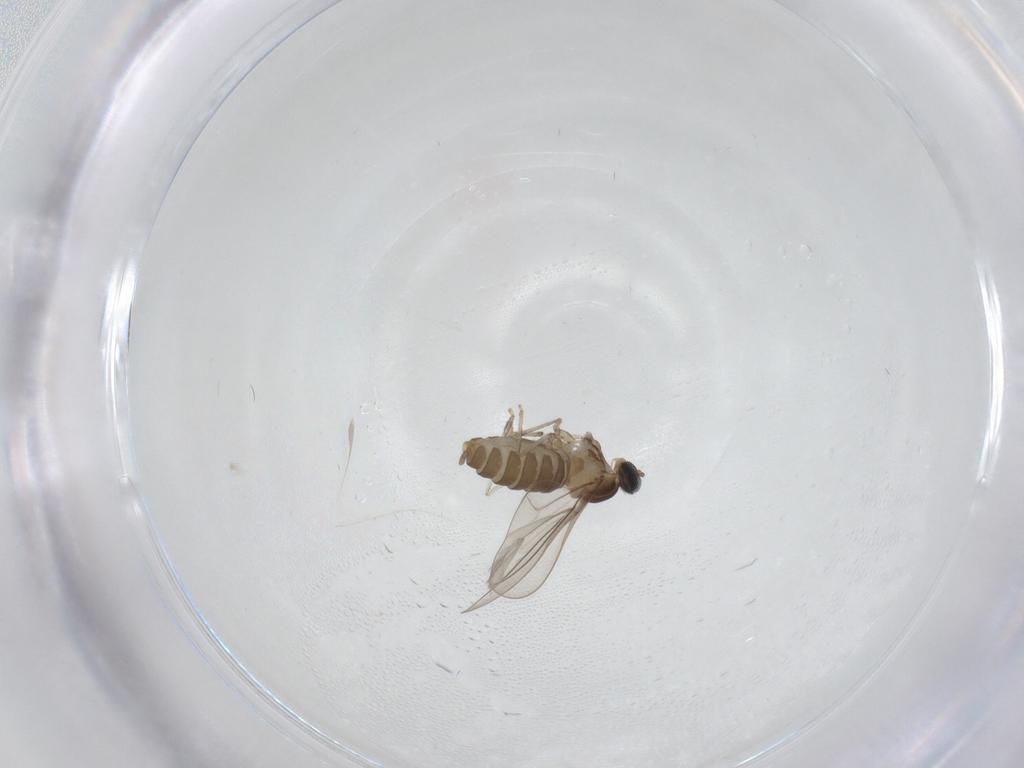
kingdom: Animalia
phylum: Arthropoda
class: Insecta
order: Diptera
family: Cecidomyiidae
